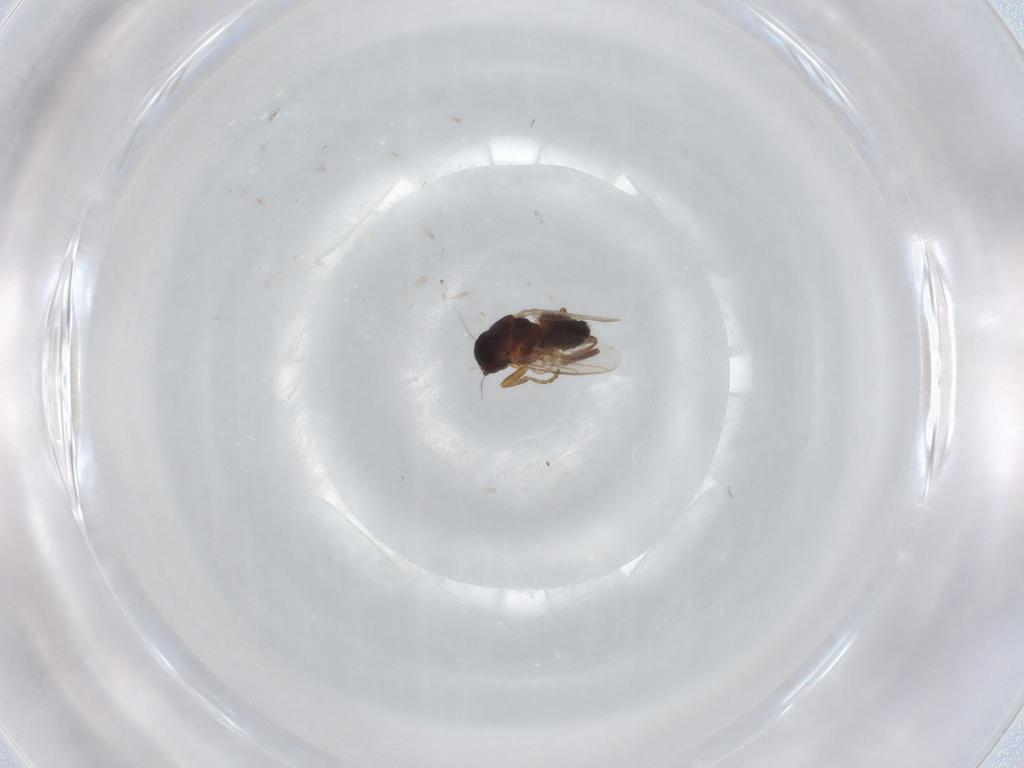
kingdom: Animalia
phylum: Arthropoda
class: Insecta
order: Diptera
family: Sphaeroceridae
